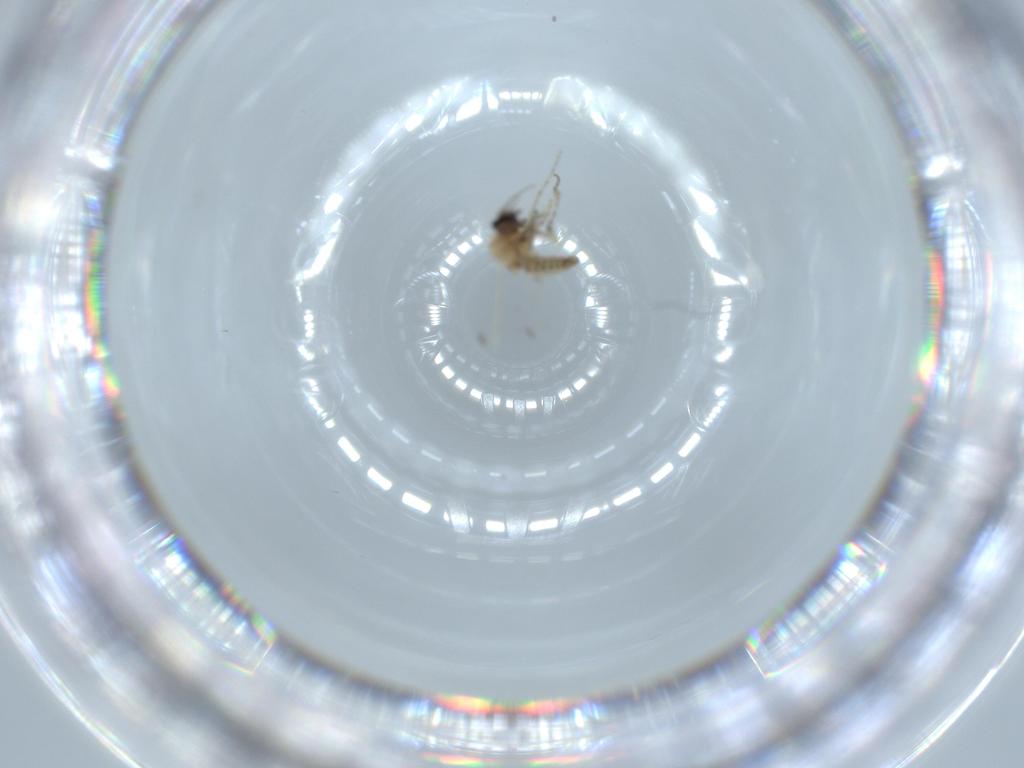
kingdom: Animalia
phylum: Arthropoda
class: Insecta
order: Diptera
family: Ceratopogonidae
